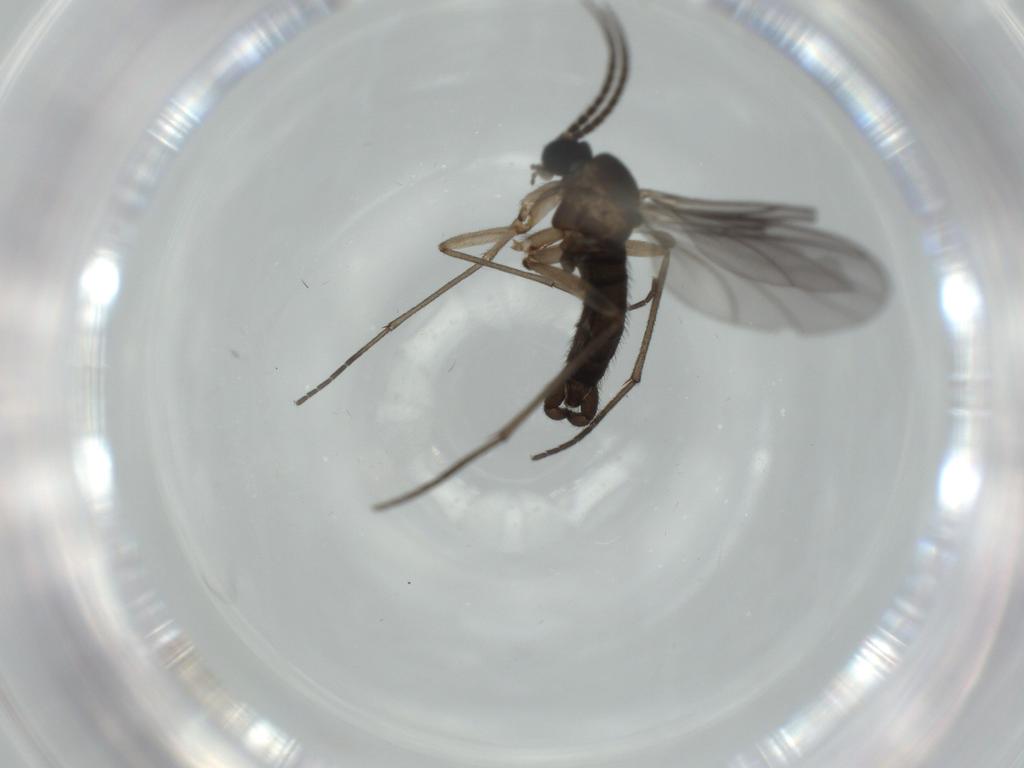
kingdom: Animalia
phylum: Arthropoda
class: Insecta
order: Diptera
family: Sciaridae
